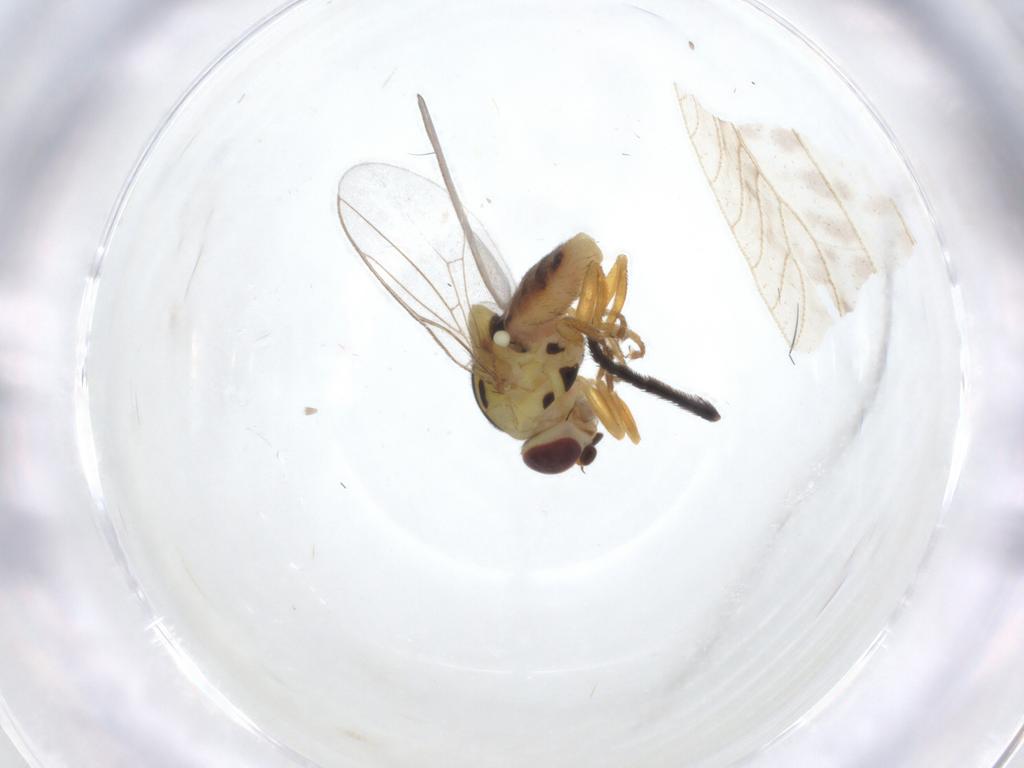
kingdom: Animalia
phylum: Arthropoda
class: Insecta
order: Diptera
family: Chloropidae
